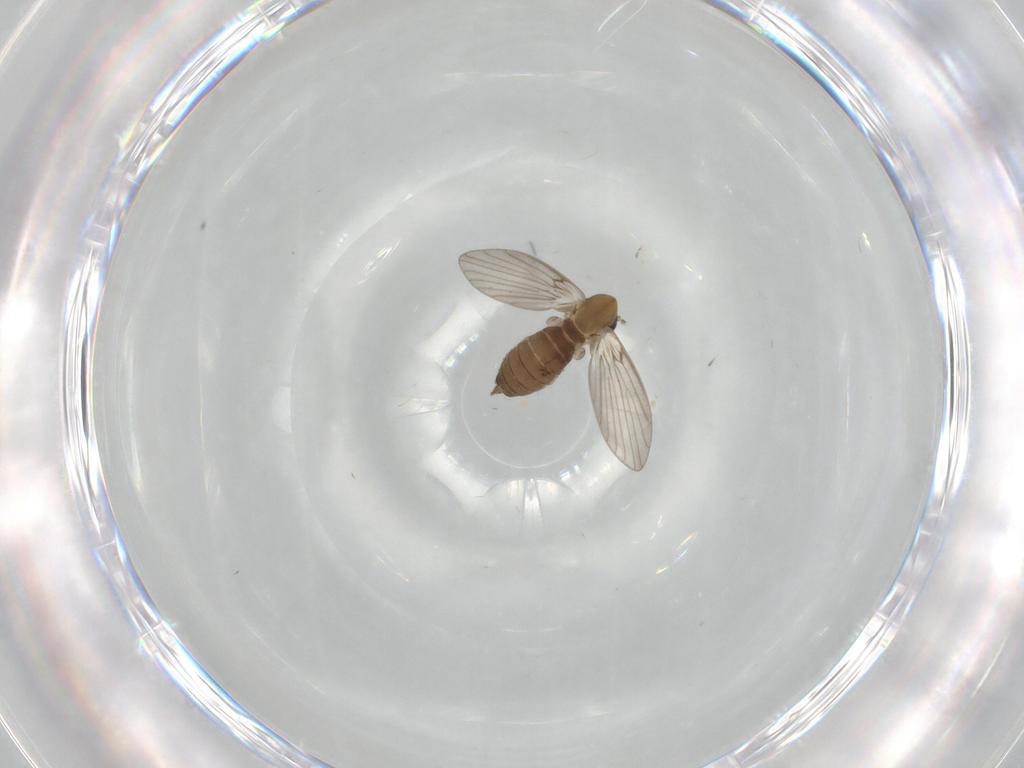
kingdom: Animalia
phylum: Arthropoda
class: Insecta
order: Diptera
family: Psychodidae
